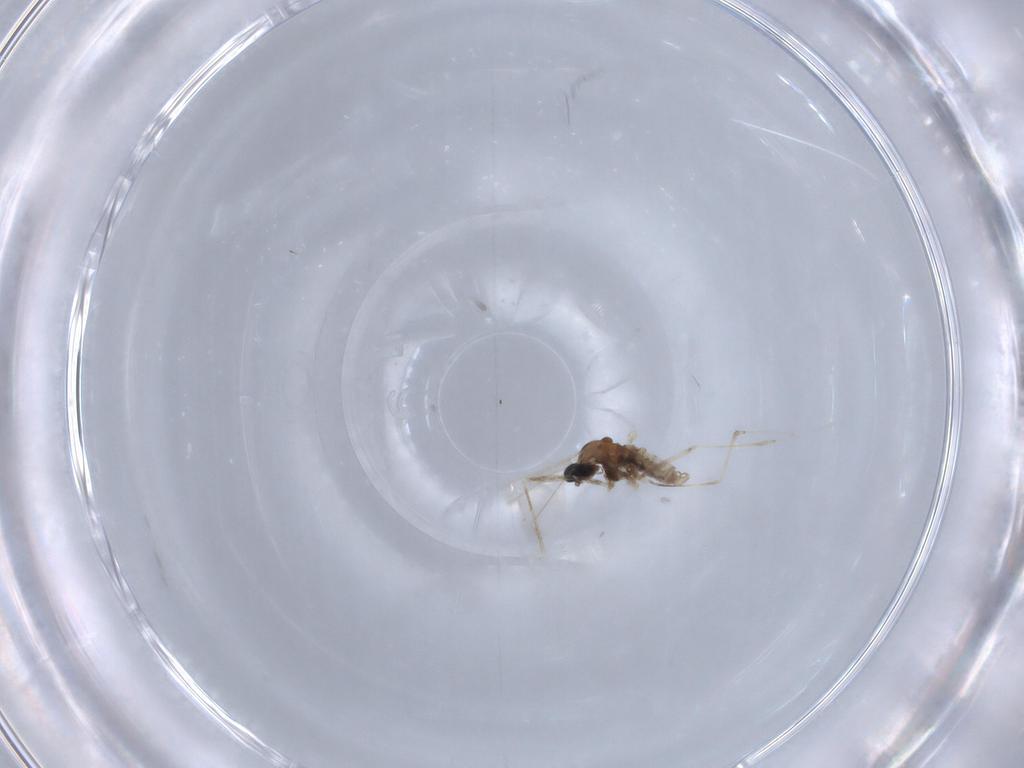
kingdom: Animalia
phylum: Arthropoda
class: Insecta
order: Diptera
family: Cecidomyiidae
